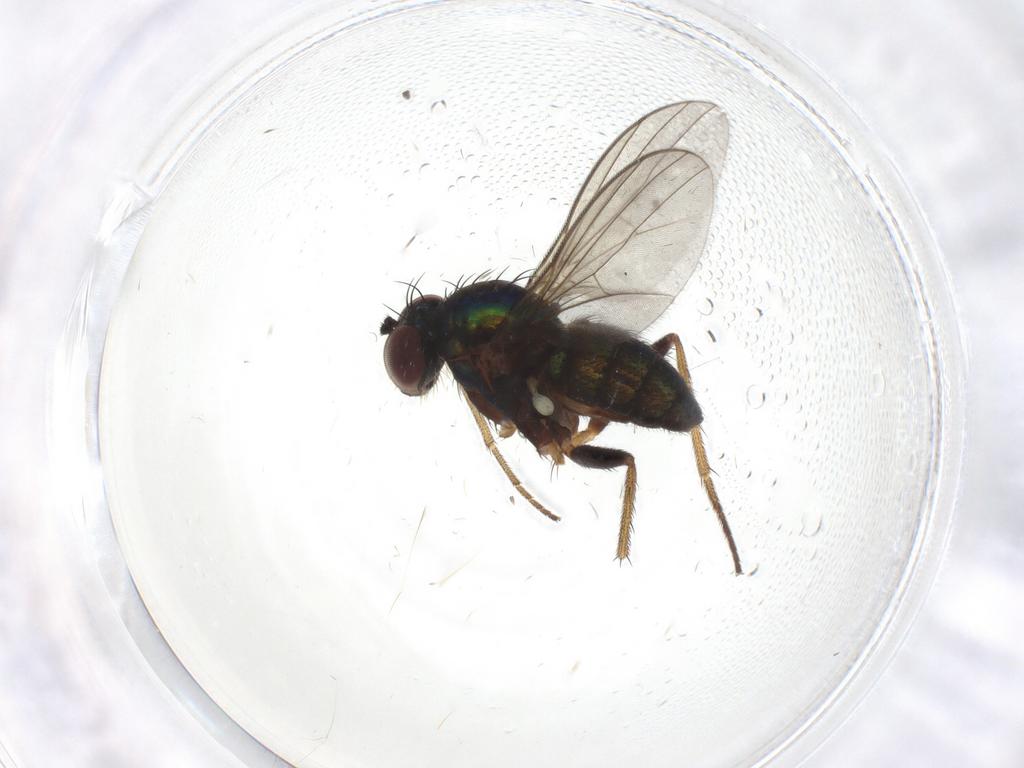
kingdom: Animalia
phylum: Arthropoda
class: Insecta
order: Diptera
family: Dolichopodidae
